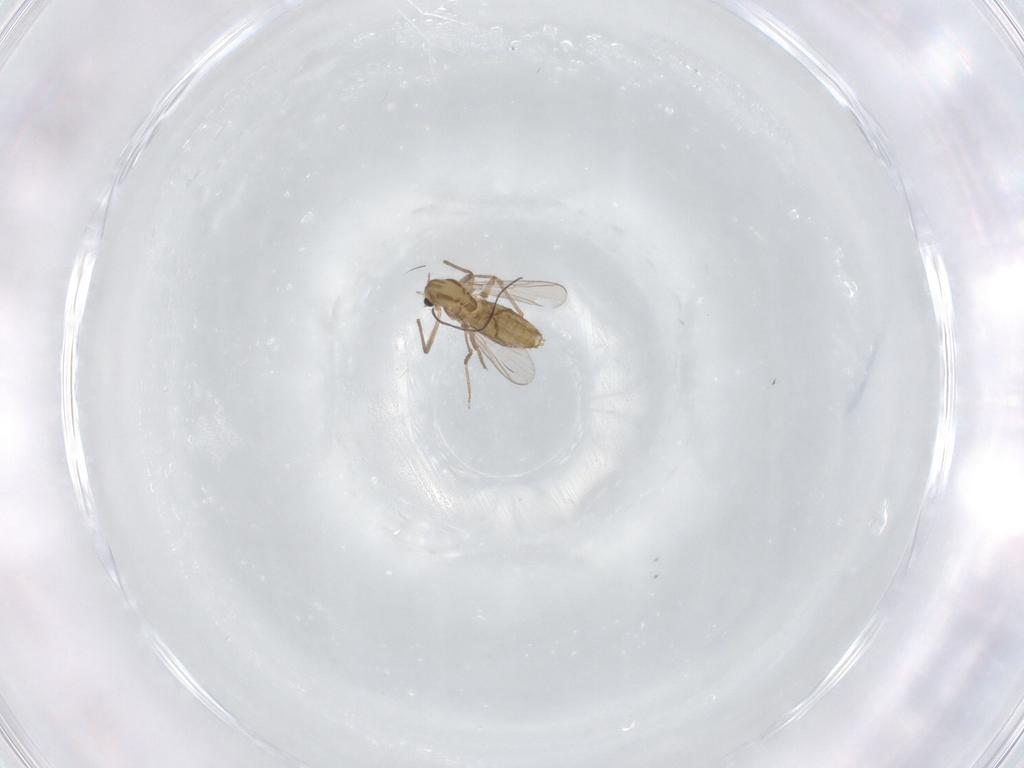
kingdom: Animalia
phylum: Arthropoda
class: Insecta
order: Diptera
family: Chironomidae
